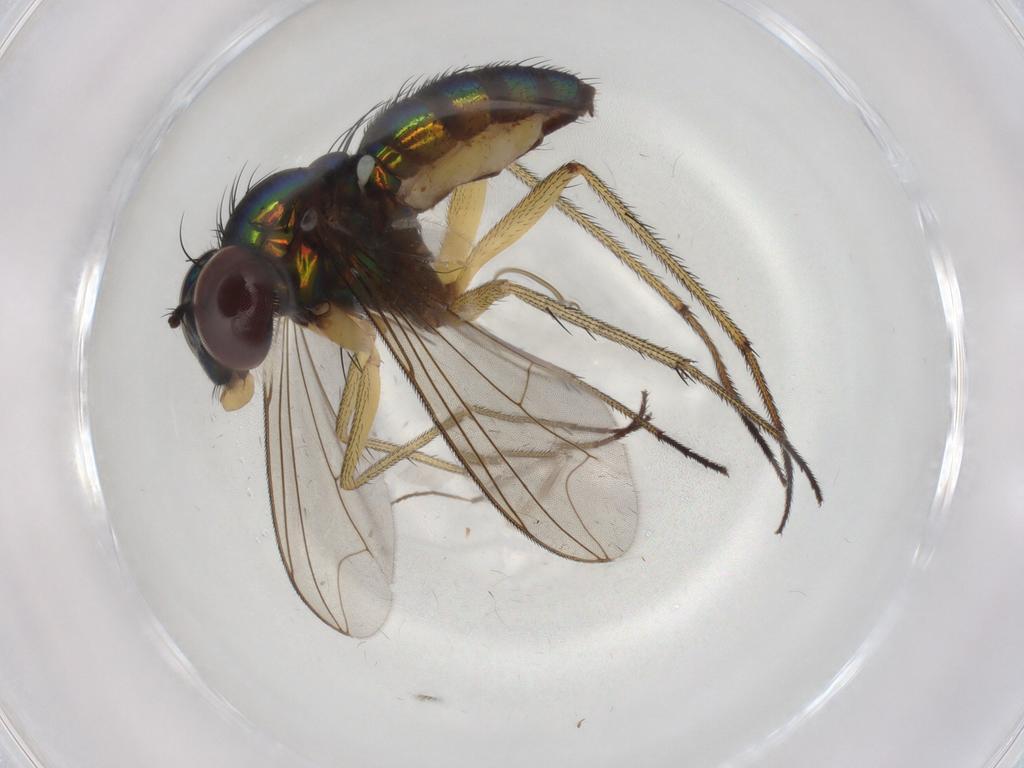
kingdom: Animalia
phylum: Arthropoda
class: Insecta
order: Diptera
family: Dolichopodidae
